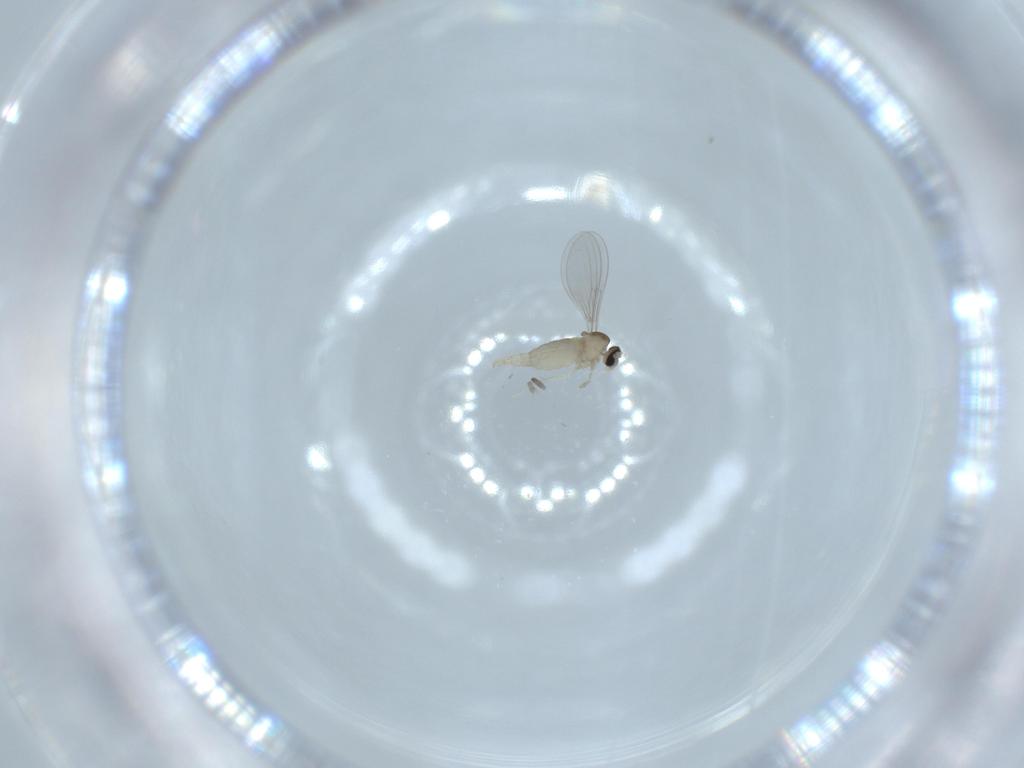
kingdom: Animalia
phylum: Arthropoda
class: Insecta
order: Diptera
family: Cecidomyiidae
